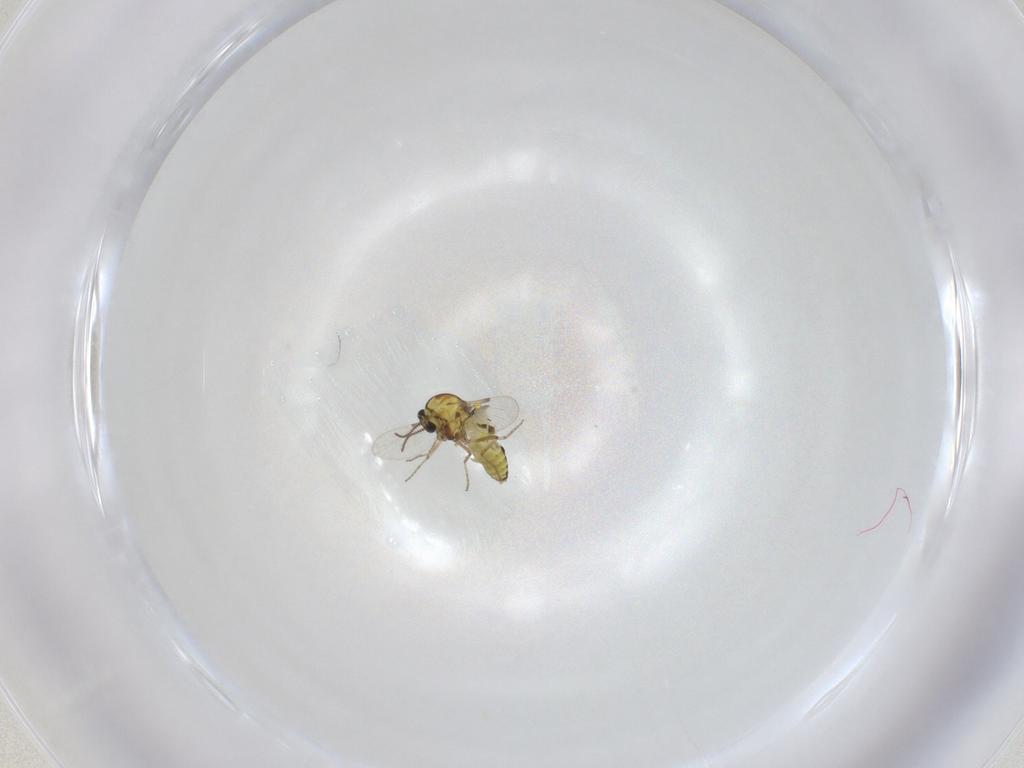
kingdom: Animalia
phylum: Arthropoda
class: Insecta
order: Diptera
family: Ceratopogonidae
